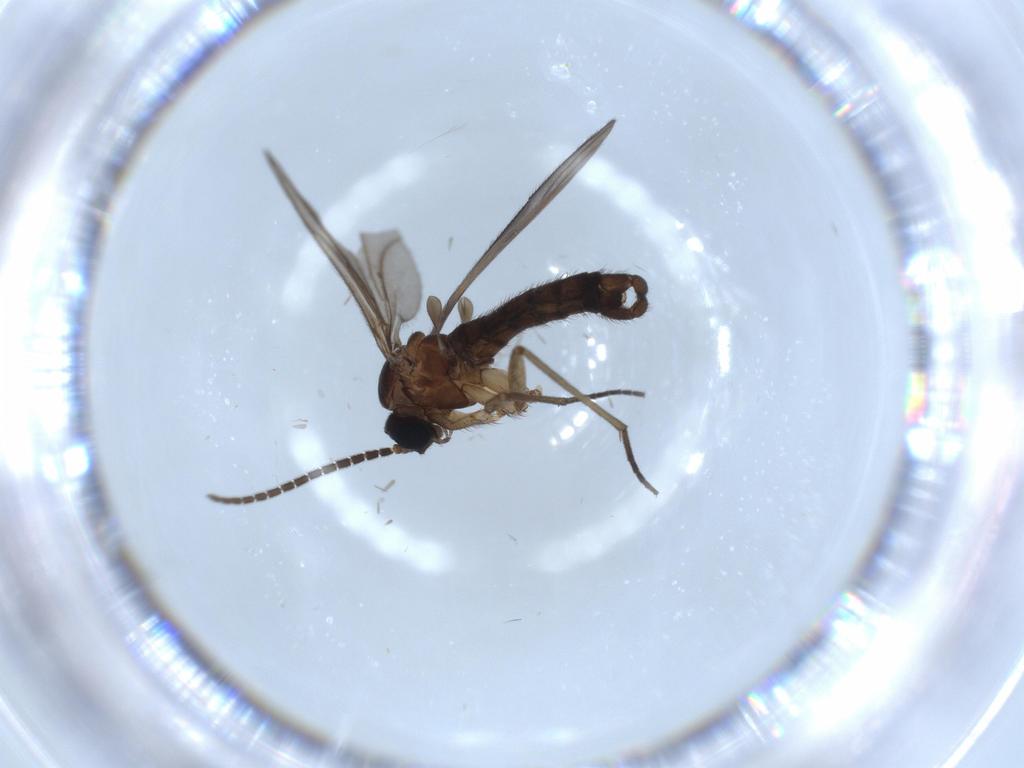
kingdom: Animalia
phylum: Arthropoda
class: Insecta
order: Diptera
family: Sciaridae
